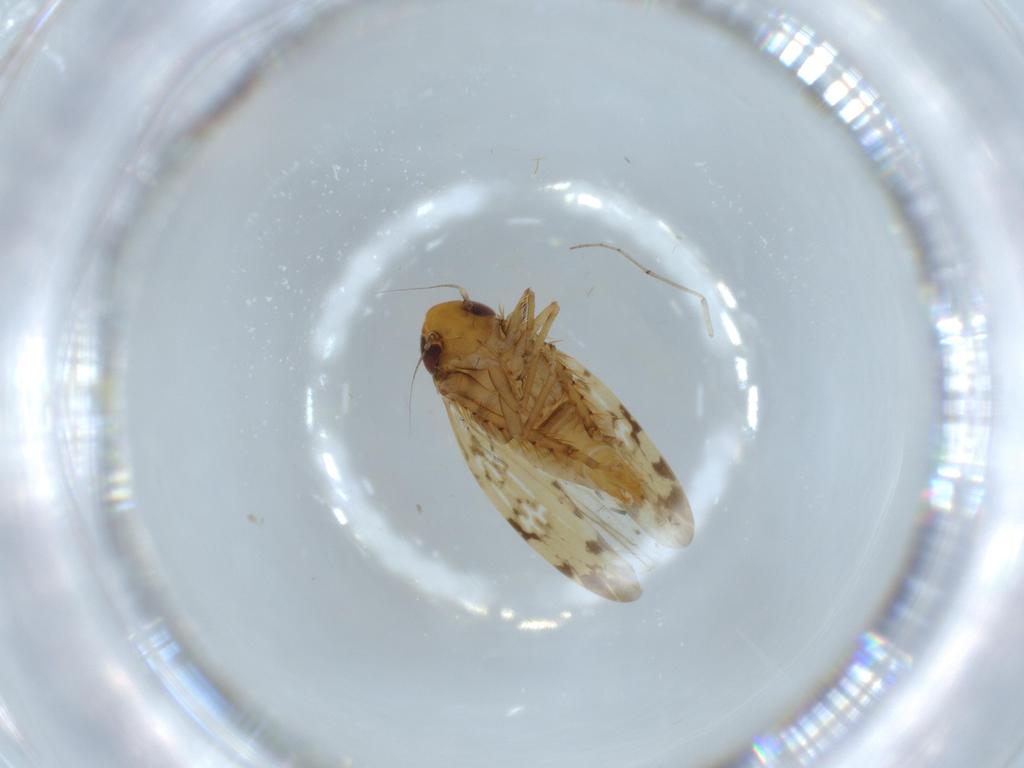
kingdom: Animalia
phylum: Arthropoda
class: Insecta
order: Hemiptera
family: Cicadellidae
